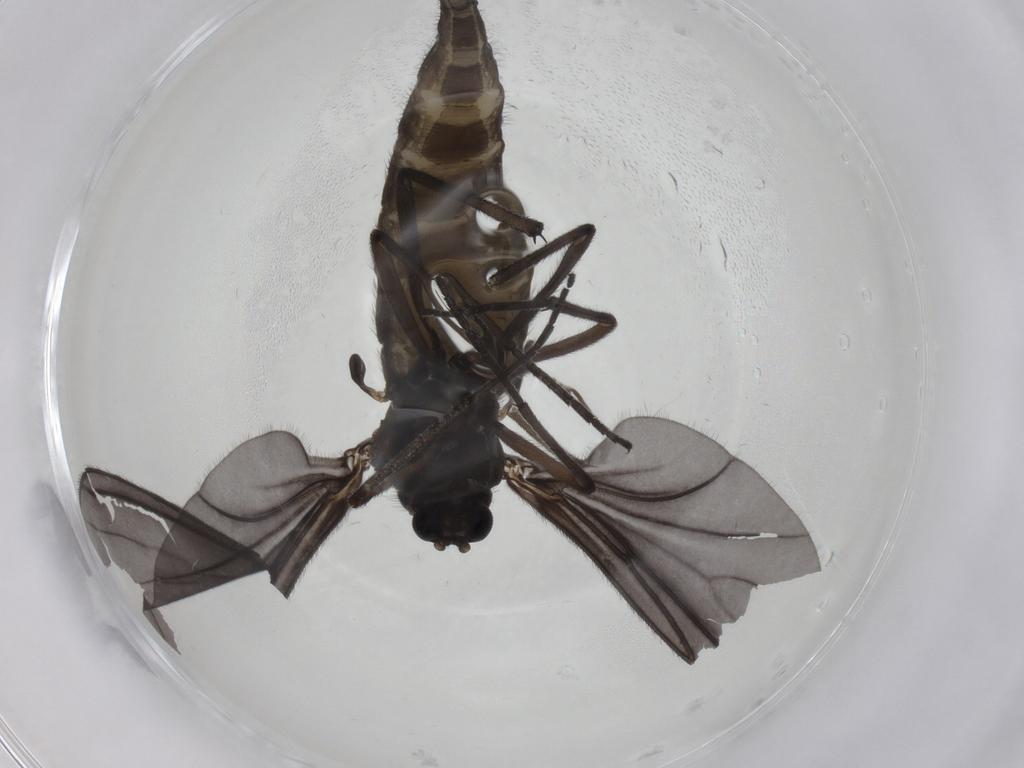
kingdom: Animalia
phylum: Arthropoda
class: Insecta
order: Diptera
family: Sciaridae
